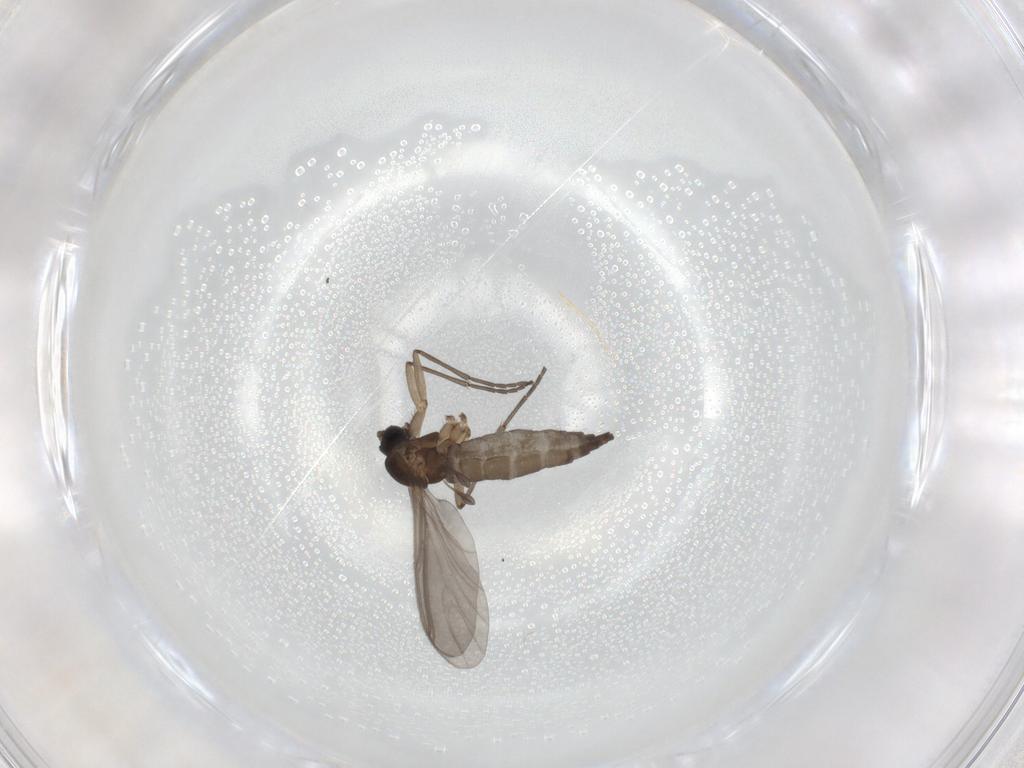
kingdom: Animalia
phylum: Arthropoda
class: Insecta
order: Diptera
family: Sciaridae
